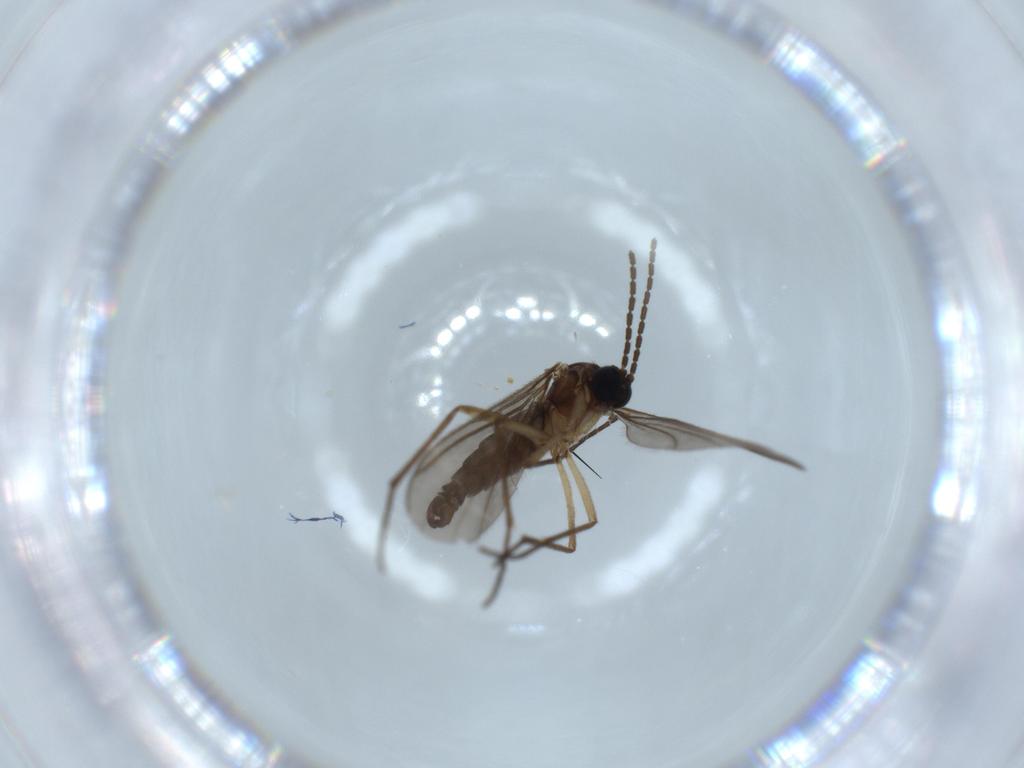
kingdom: Animalia
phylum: Arthropoda
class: Insecta
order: Diptera
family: Sciaridae
